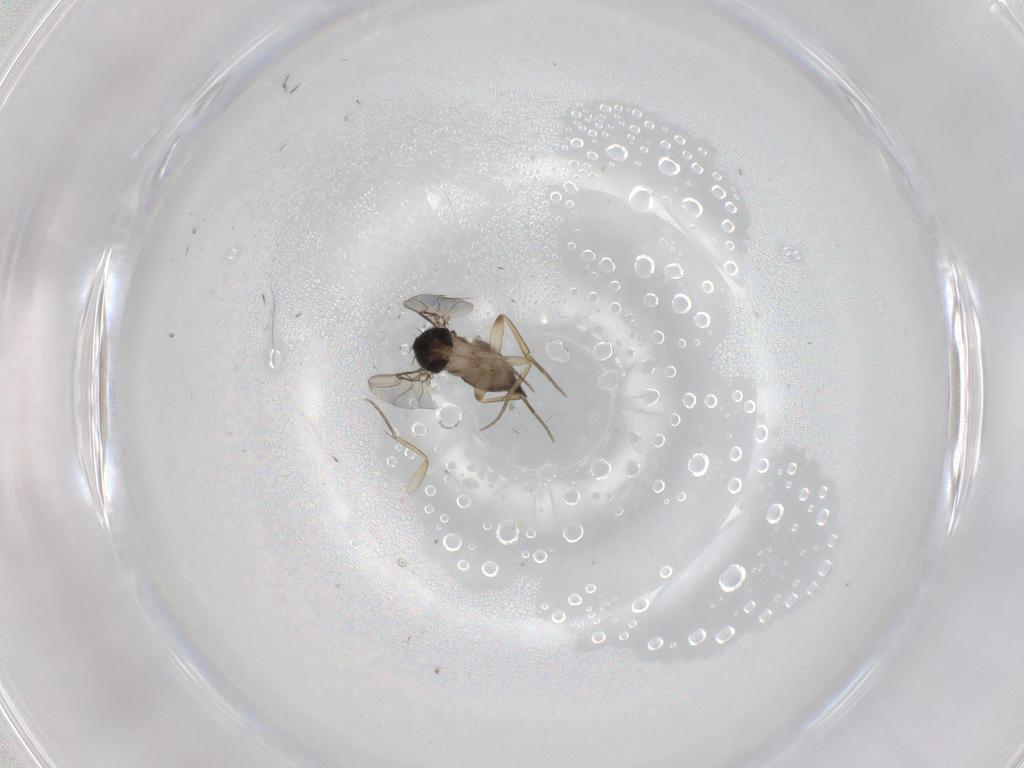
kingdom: Animalia
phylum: Arthropoda
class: Insecta
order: Diptera
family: Phoridae
